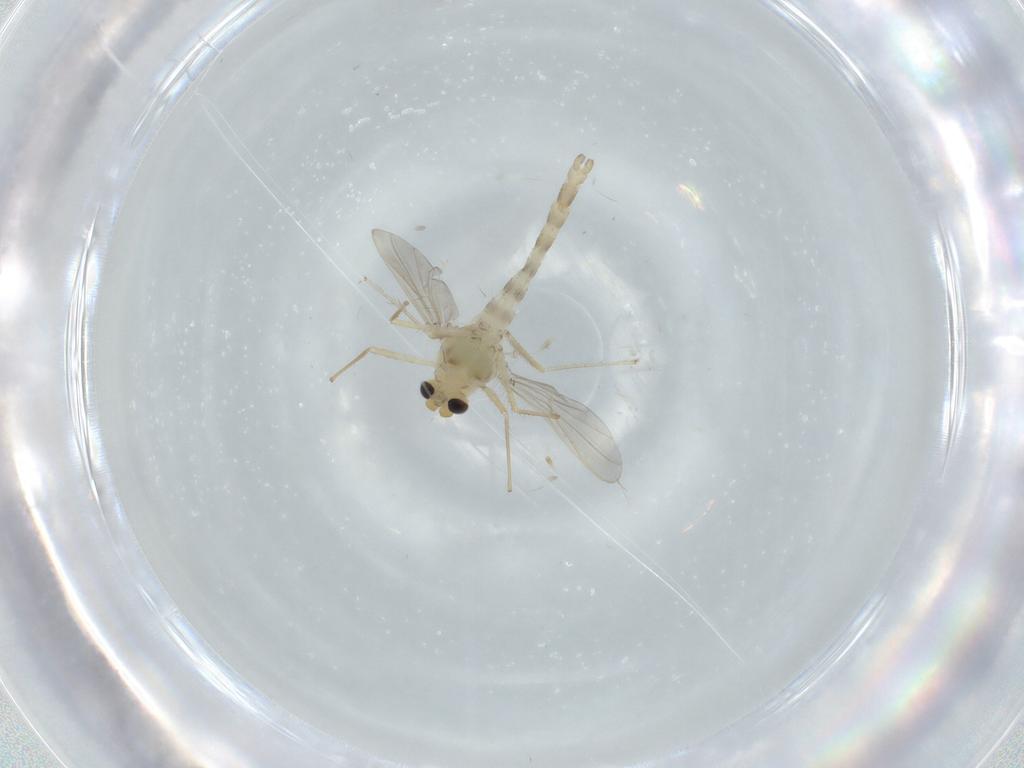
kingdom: Animalia
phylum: Arthropoda
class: Insecta
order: Diptera
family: Chironomidae
